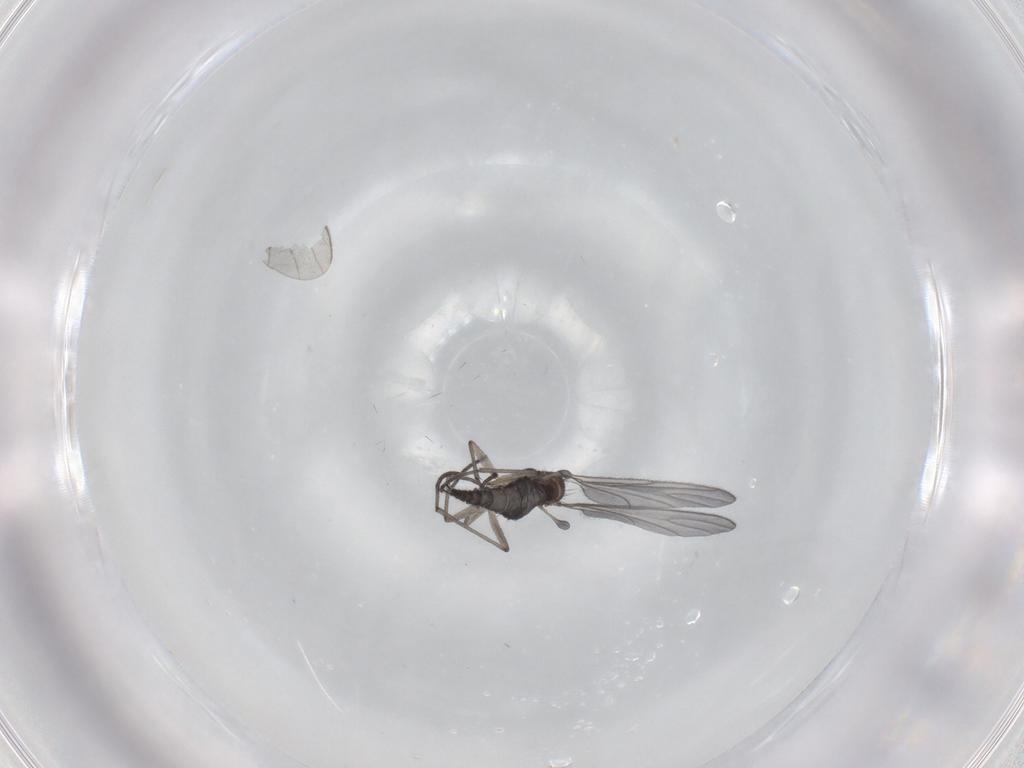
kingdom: Animalia
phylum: Arthropoda
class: Insecta
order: Diptera
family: Sciaridae
